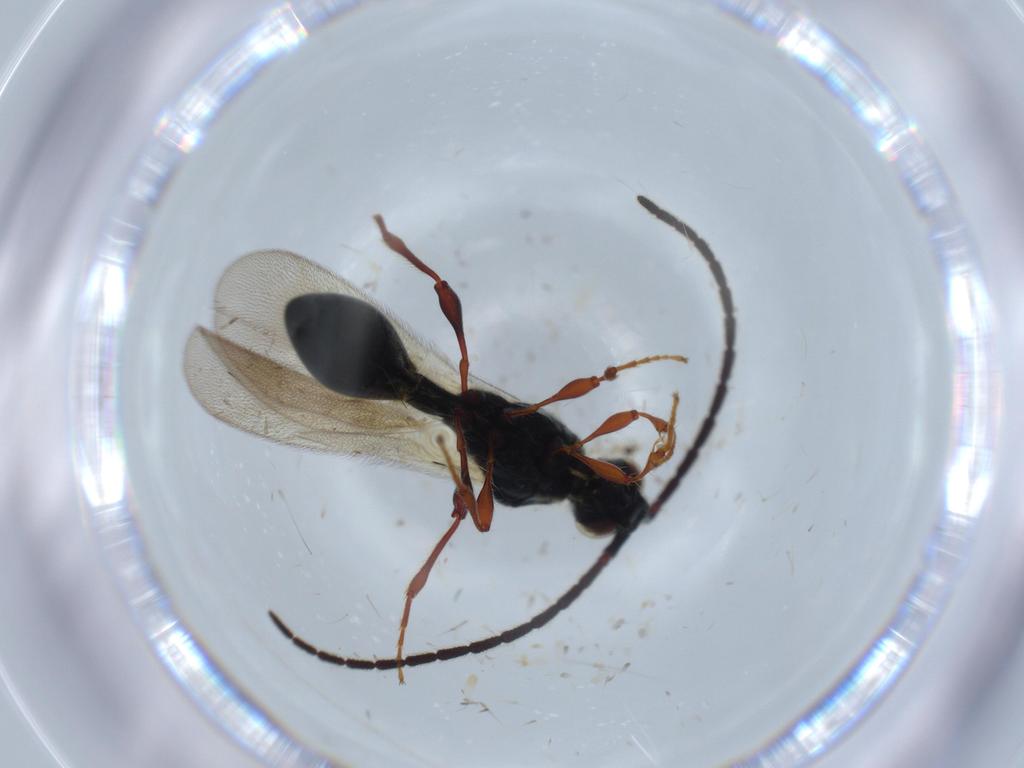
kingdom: Animalia
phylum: Arthropoda
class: Insecta
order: Hymenoptera
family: Diapriidae
